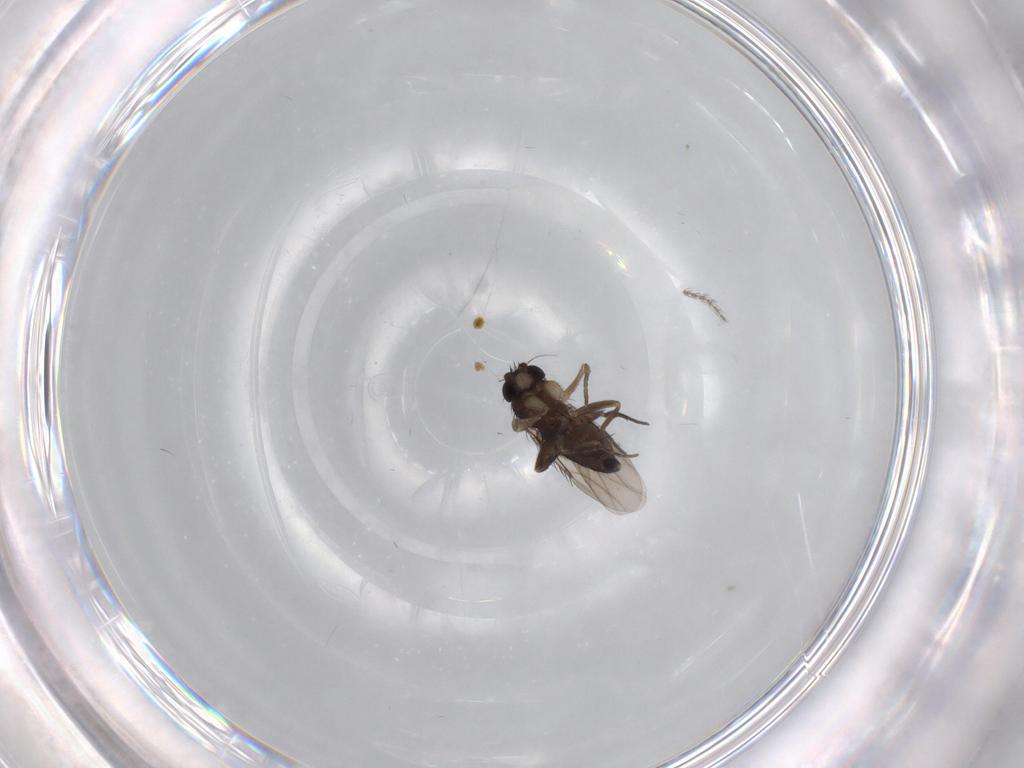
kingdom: Animalia
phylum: Arthropoda
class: Insecta
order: Diptera
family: Phoridae
